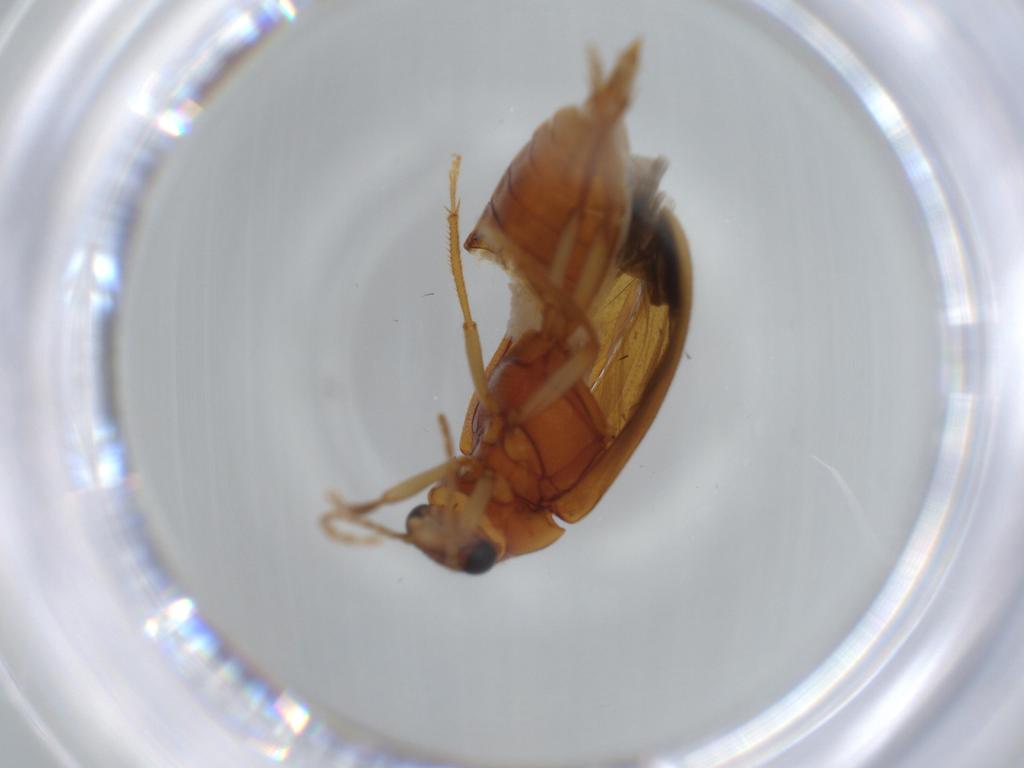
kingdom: Animalia
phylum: Arthropoda
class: Insecta
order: Coleoptera
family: Ptilodactylidae
